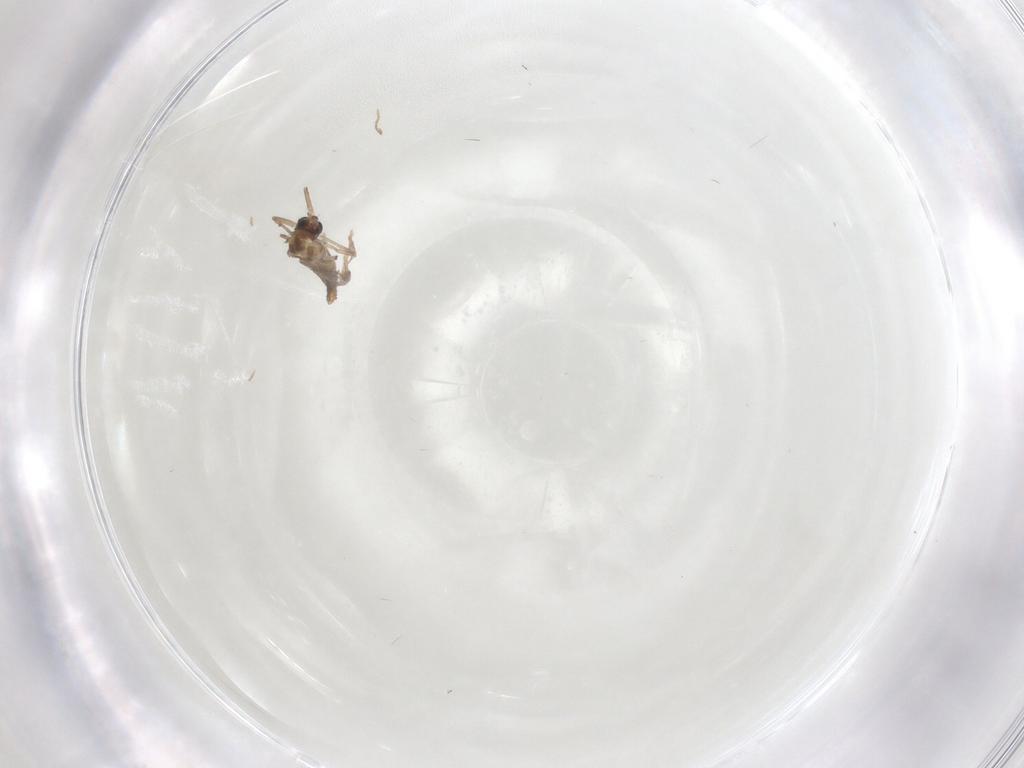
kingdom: Animalia
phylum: Arthropoda
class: Insecta
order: Diptera
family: Chironomidae
